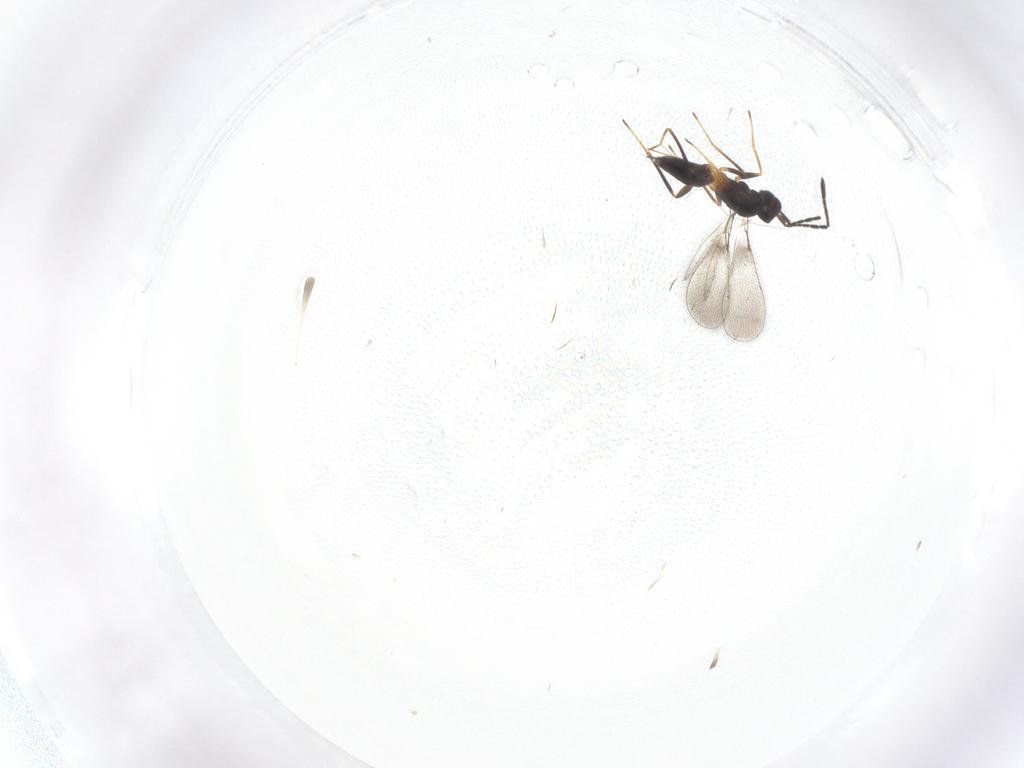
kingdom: Animalia
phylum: Arthropoda
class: Insecta
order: Hymenoptera
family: Mymaridae
